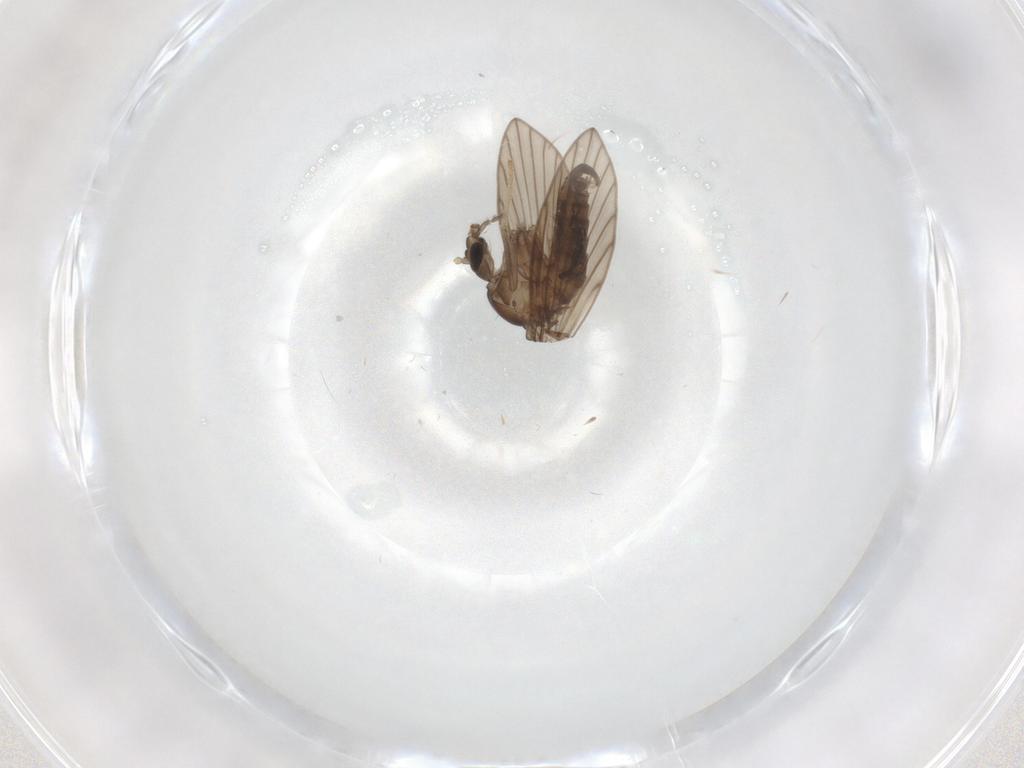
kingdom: Animalia
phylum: Arthropoda
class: Insecta
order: Diptera
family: Psychodidae
